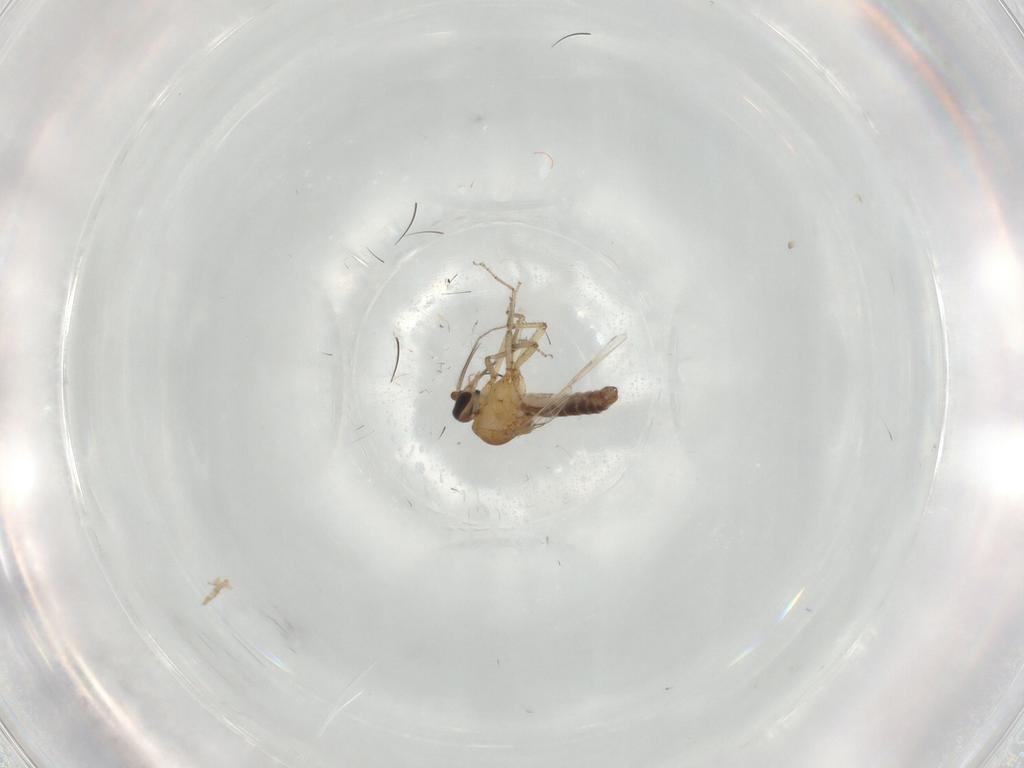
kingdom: Animalia
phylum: Arthropoda
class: Insecta
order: Diptera
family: Ceratopogonidae
